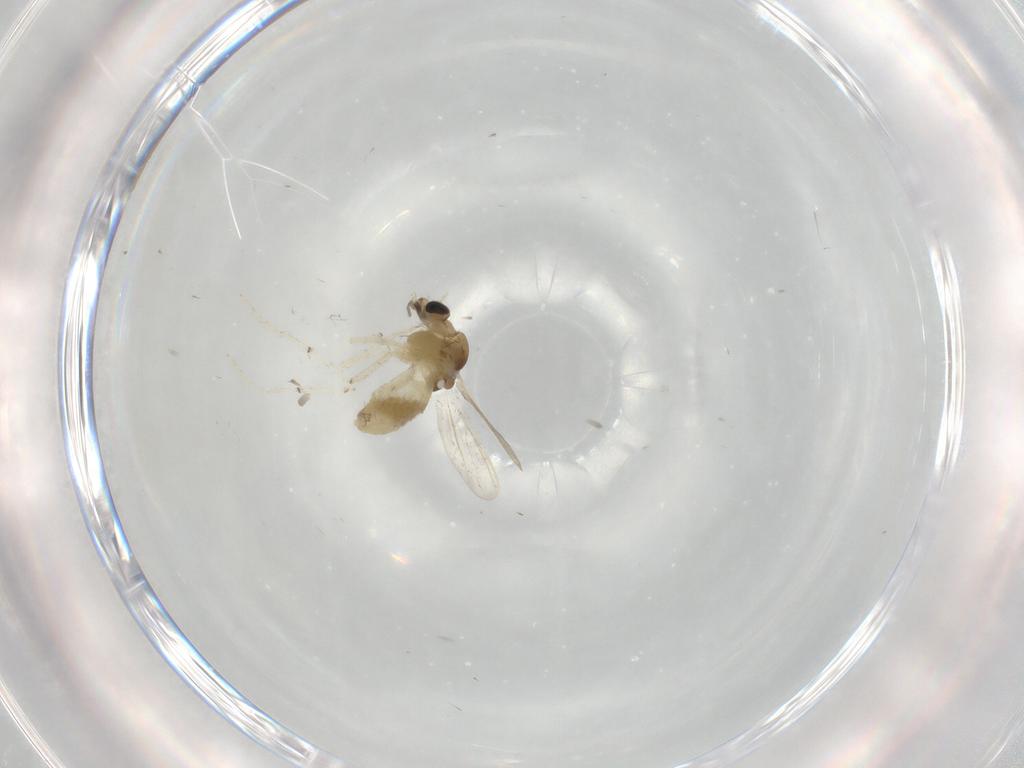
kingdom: Animalia
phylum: Arthropoda
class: Insecta
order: Diptera
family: Chironomidae
